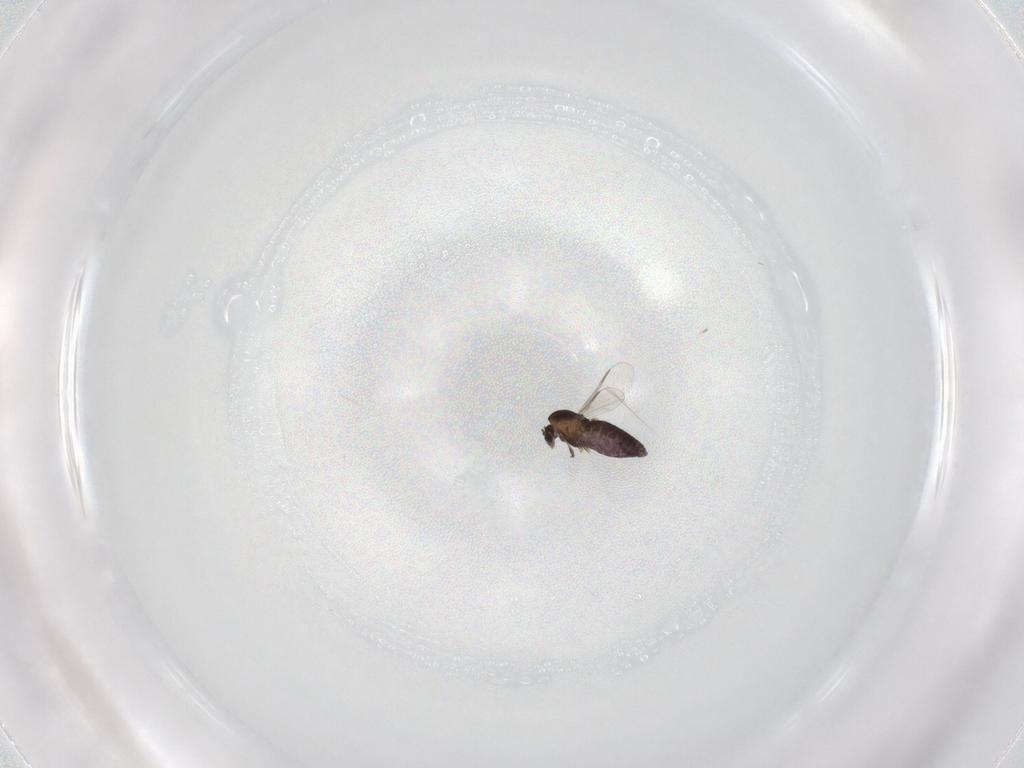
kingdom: Animalia
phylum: Arthropoda
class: Insecta
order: Diptera
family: Chironomidae
